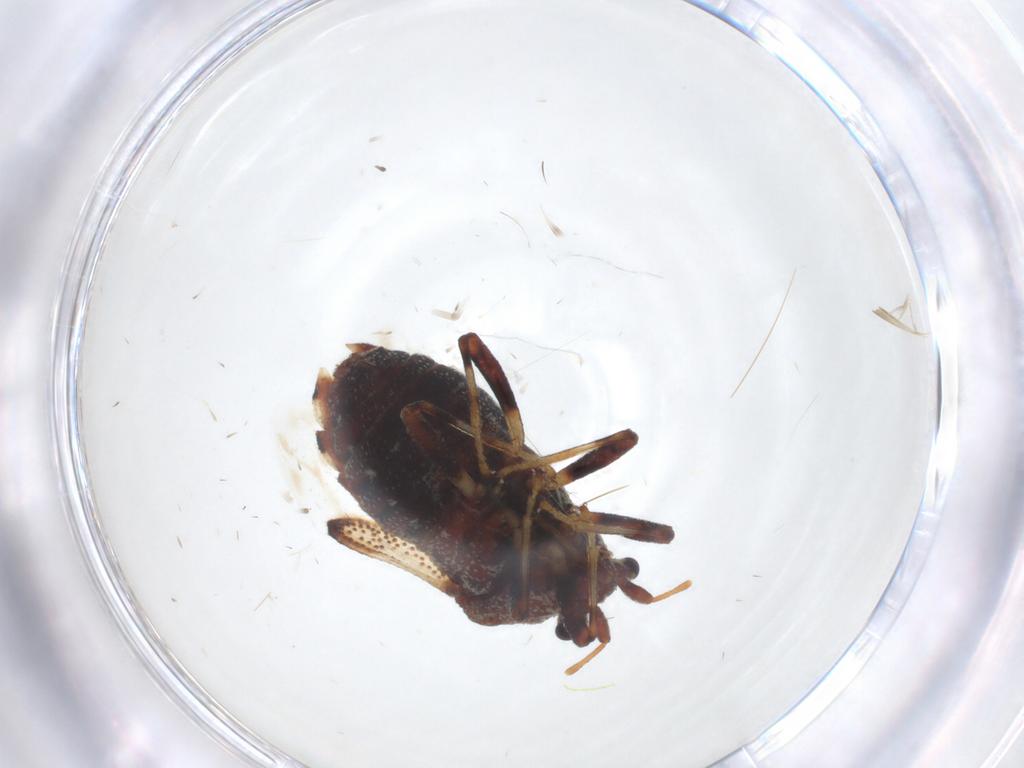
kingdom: Animalia
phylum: Arthropoda
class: Insecta
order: Hemiptera
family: Malcidae
